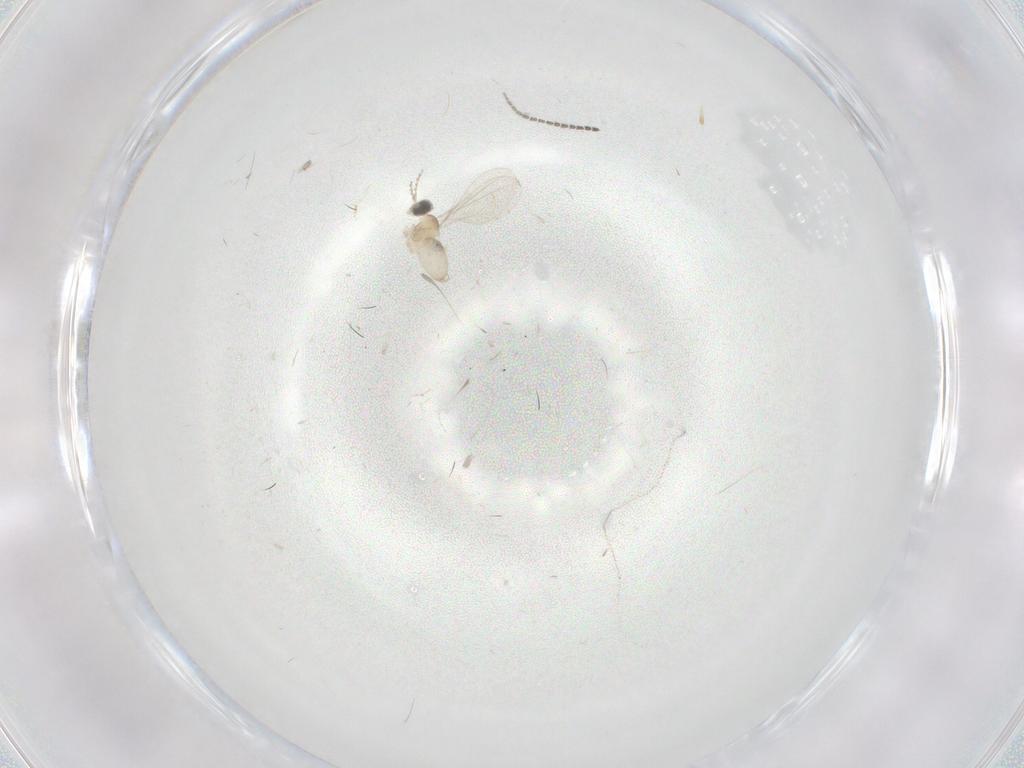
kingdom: Animalia
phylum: Arthropoda
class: Insecta
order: Diptera
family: Sciaridae
